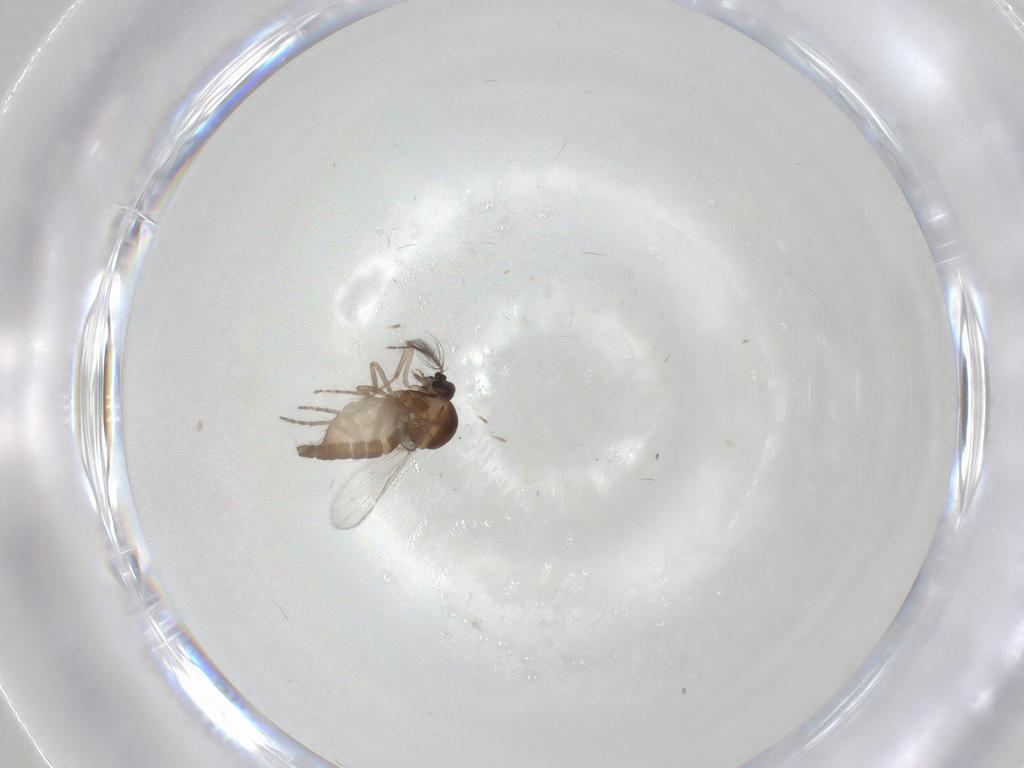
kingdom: Animalia
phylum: Arthropoda
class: Insecta
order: Diptera
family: Ceratopogonidae
